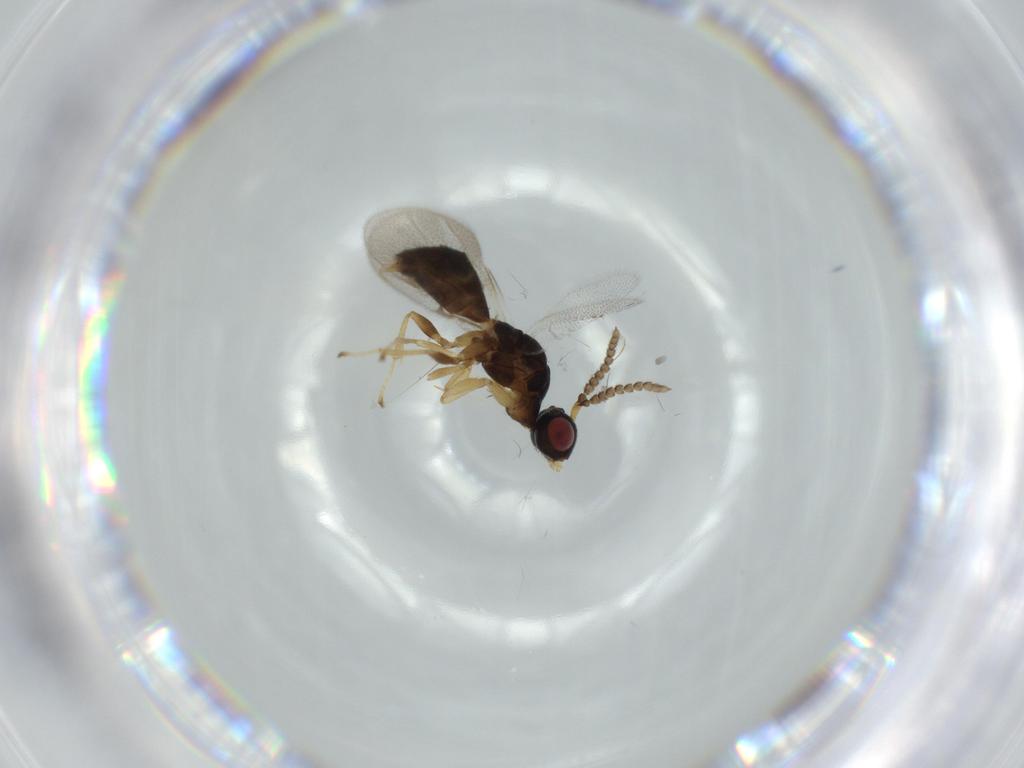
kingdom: Animalia
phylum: Arthropoda
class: Insecta
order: Hymenoptera
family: Agaonidae
